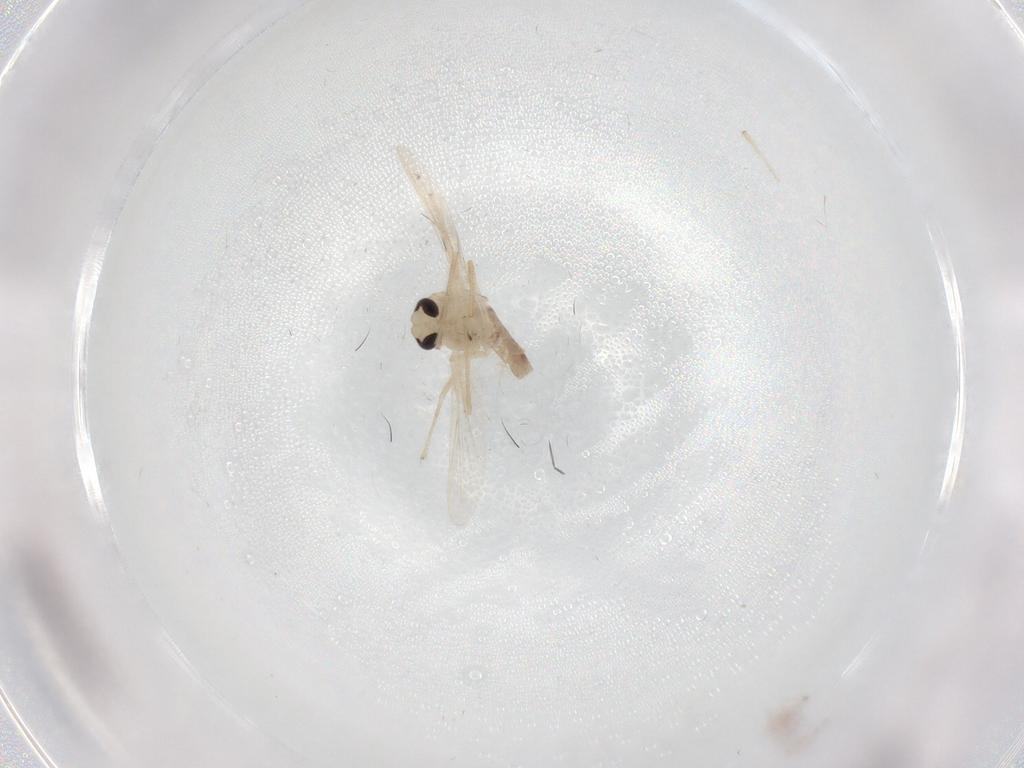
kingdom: Animalia
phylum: Arthropoda
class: Insecta
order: Diptera
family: Chironomidae
